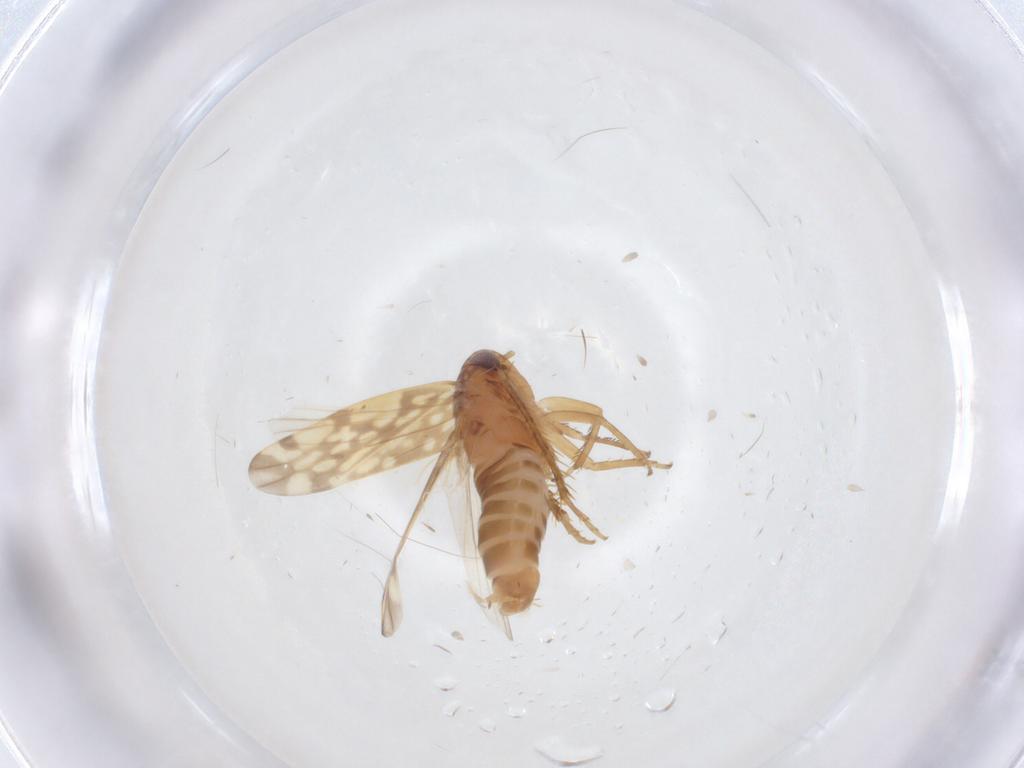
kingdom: Animalia
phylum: Arthropoda
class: Insecta
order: Hemiptera
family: Cicadellidae
